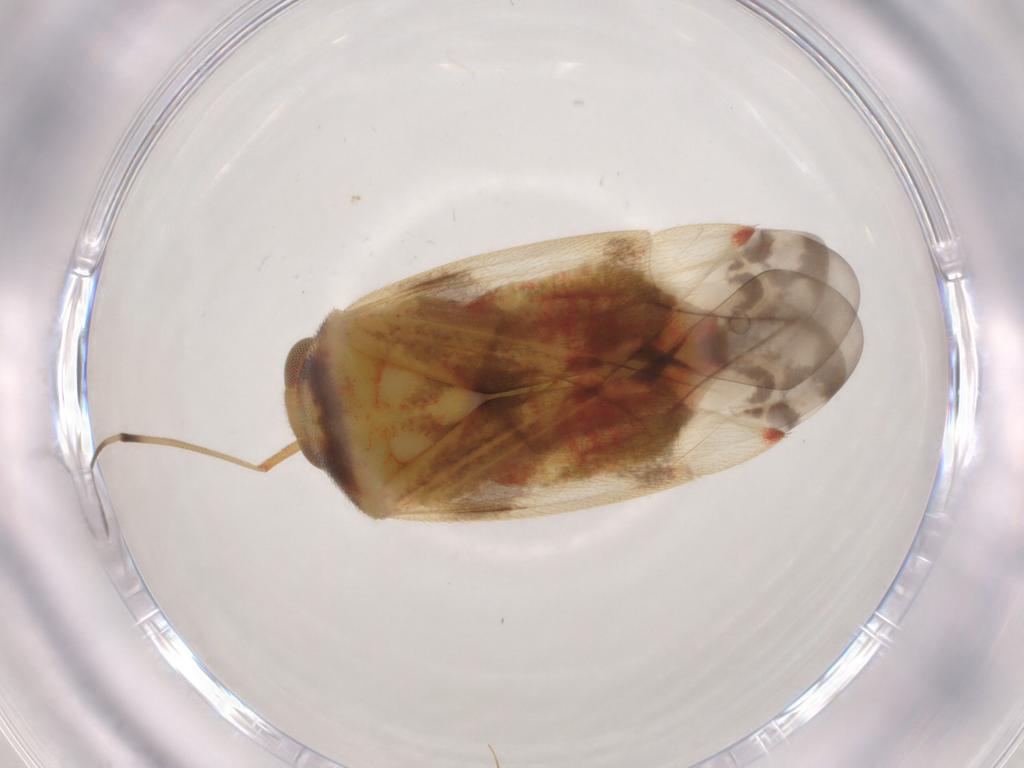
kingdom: Animalia
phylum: Arthropoda
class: Insecta
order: Hemiptera
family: Miridae
